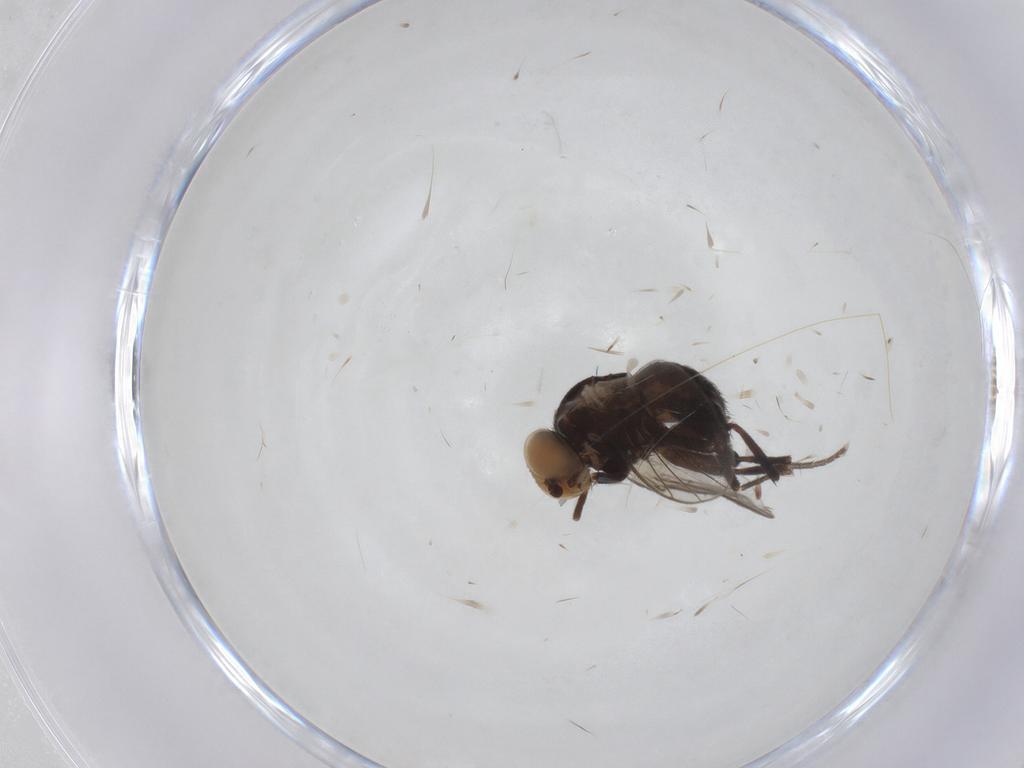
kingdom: Animalia
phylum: Arthropoda
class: Insecta
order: Diptera
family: Agromyzidae
